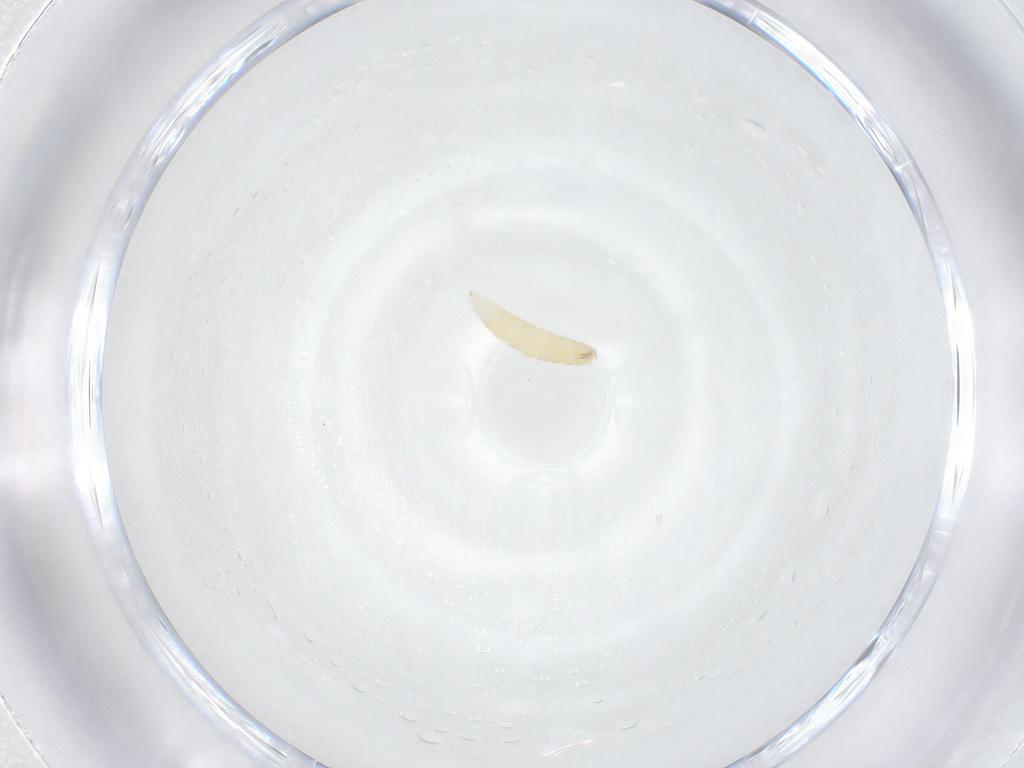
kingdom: Animalia
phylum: Arthropoda
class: Insecta
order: Diptera
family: Tachinidae
